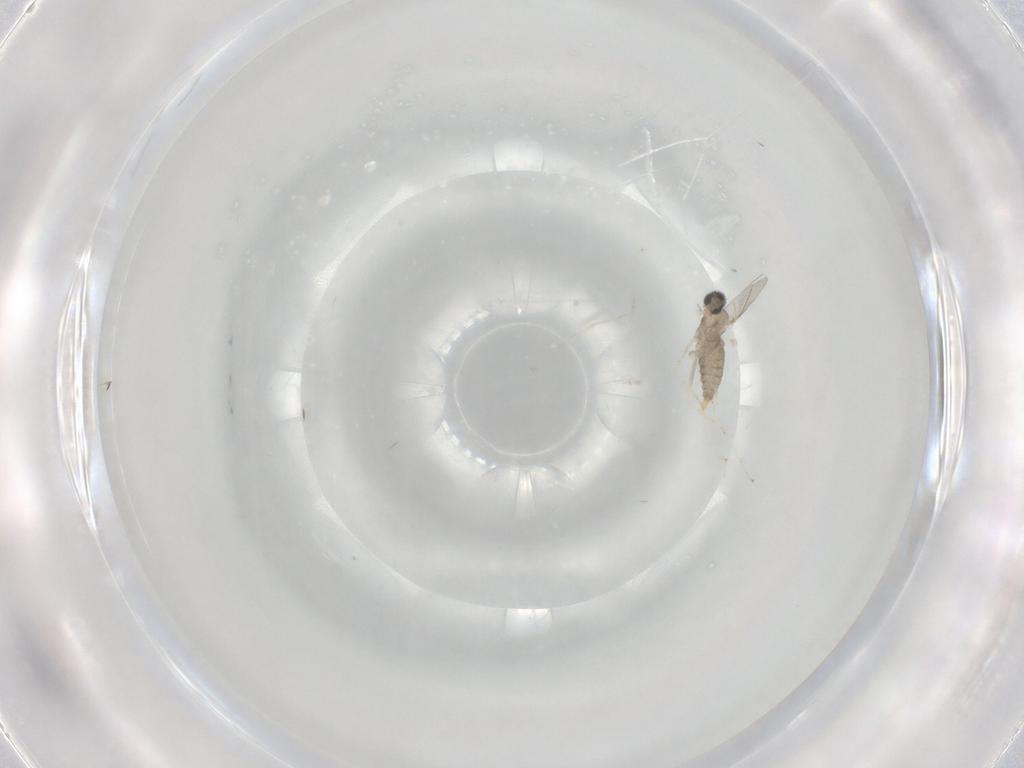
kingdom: Animalia
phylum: Arthropoda
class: Insecta
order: Diptera
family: Cecidomyiidae
